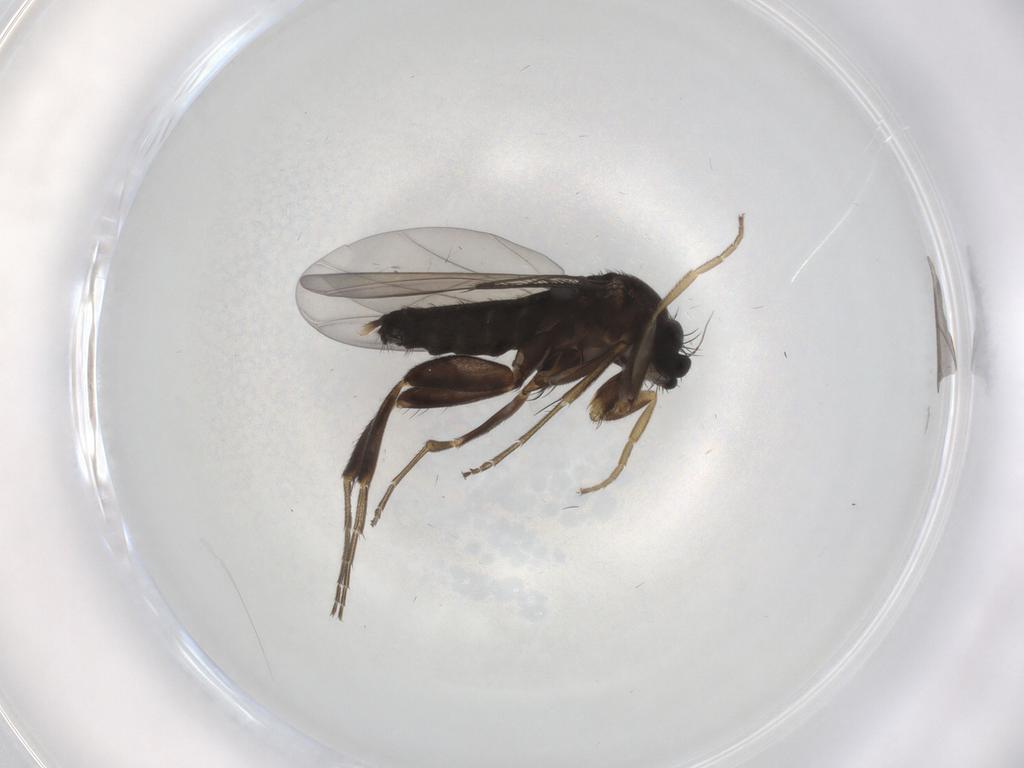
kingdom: Animalia
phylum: Arthropoda
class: Insecta
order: Diptera
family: Phoridae
